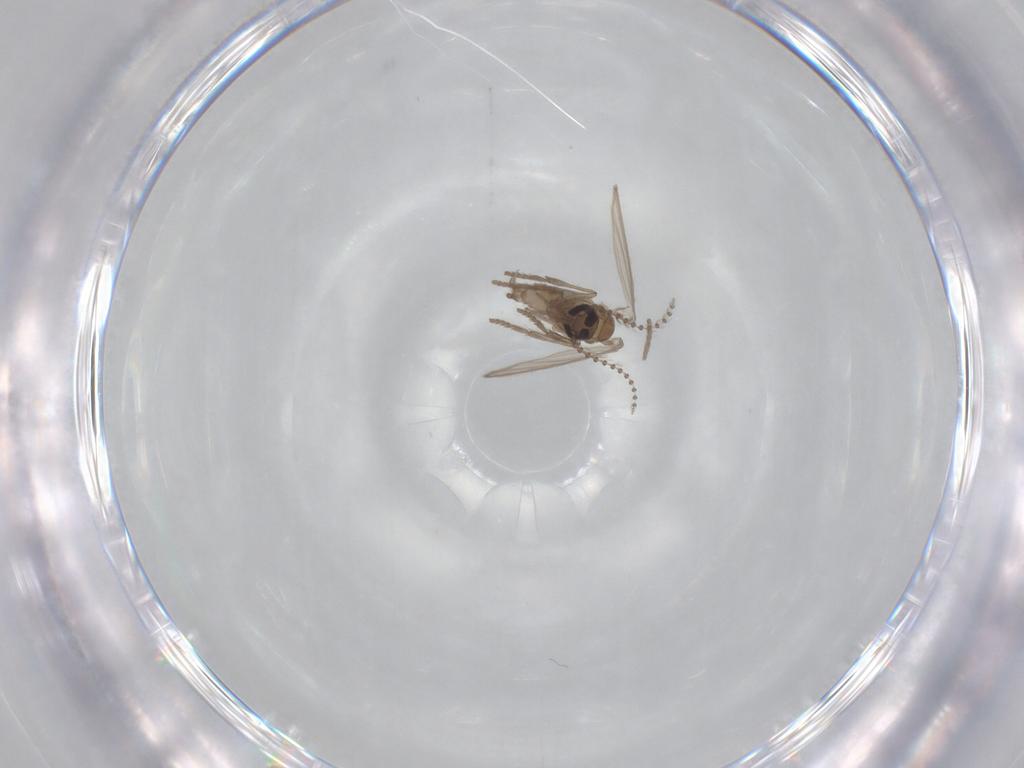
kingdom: Animalia
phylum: Arthropoda
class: Insecta
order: Diptera
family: Psychodidae
